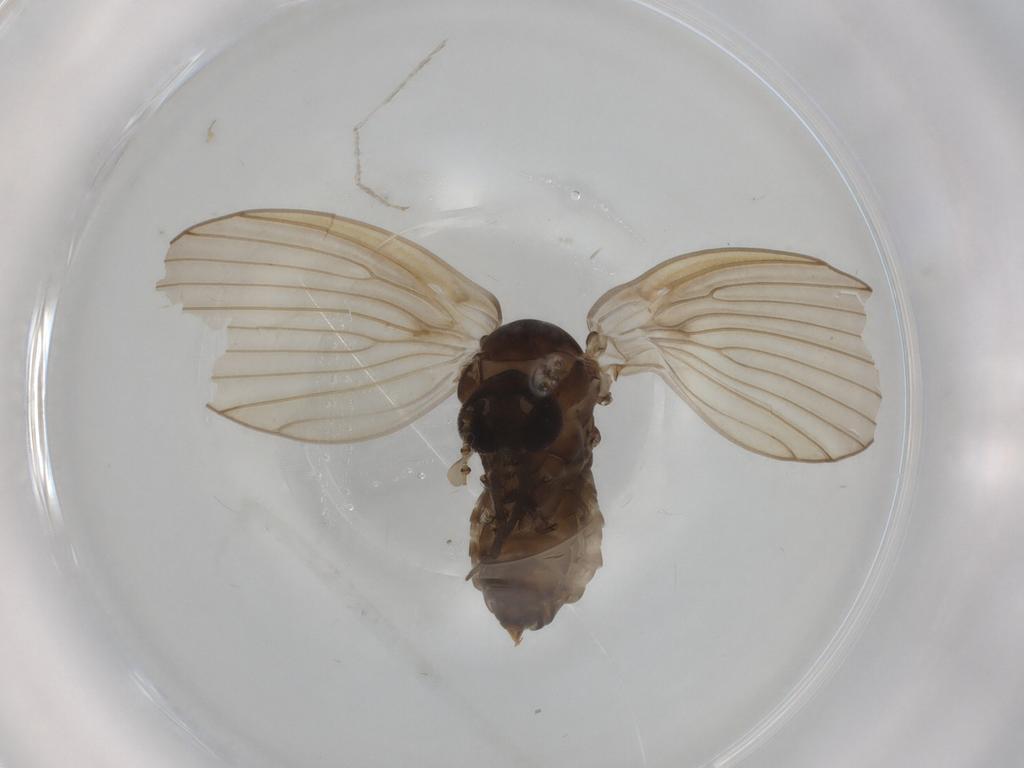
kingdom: Animalia
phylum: Arthropoda
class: Insecta
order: Diptera
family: Psychodidae
